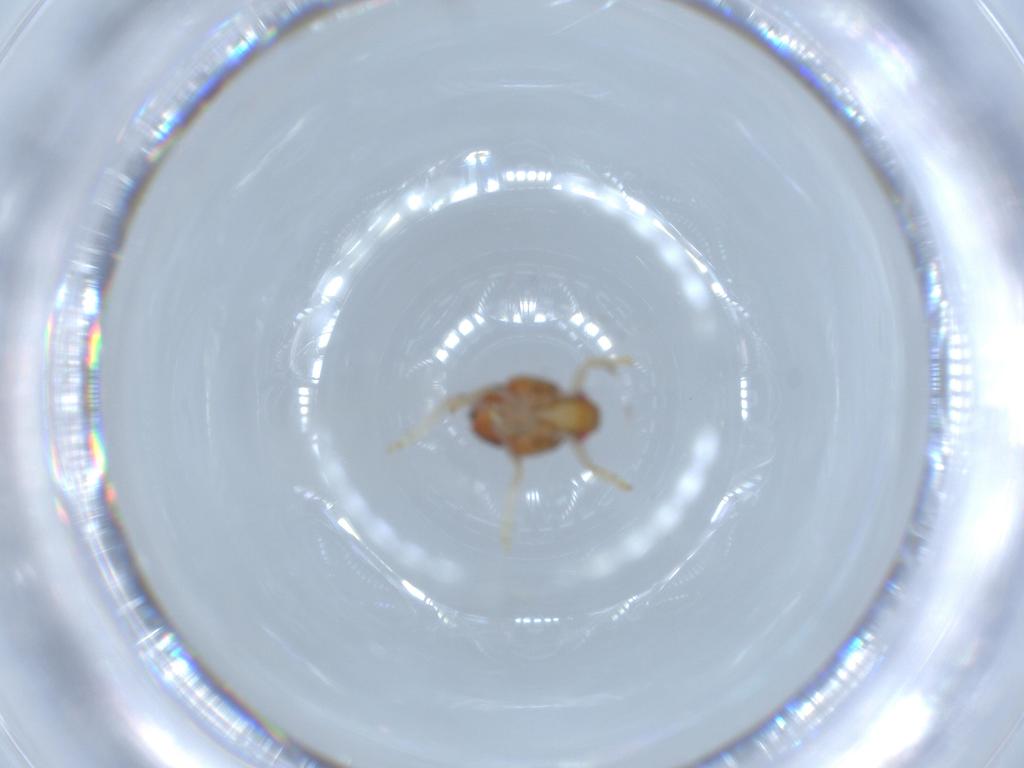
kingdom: Animalia
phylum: Arthropoda
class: Insecta
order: Hemiptera
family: Issidae
